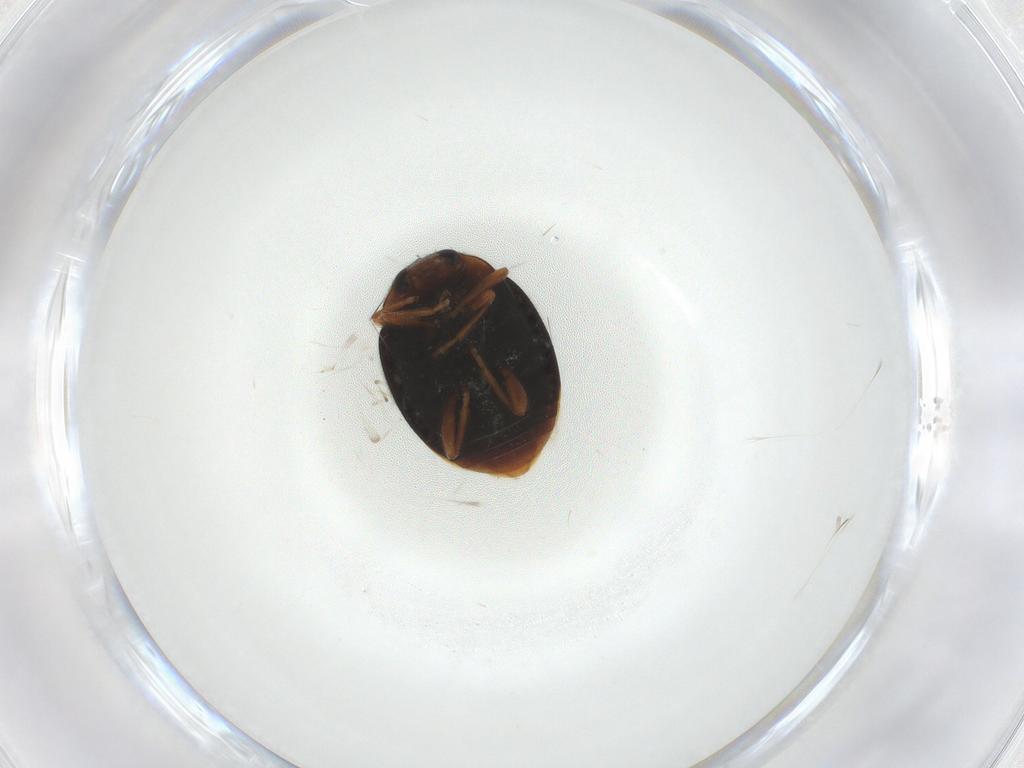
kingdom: Animalia
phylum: Arthropoda
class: Insecta
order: Coleoptera
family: Coccinellidae
